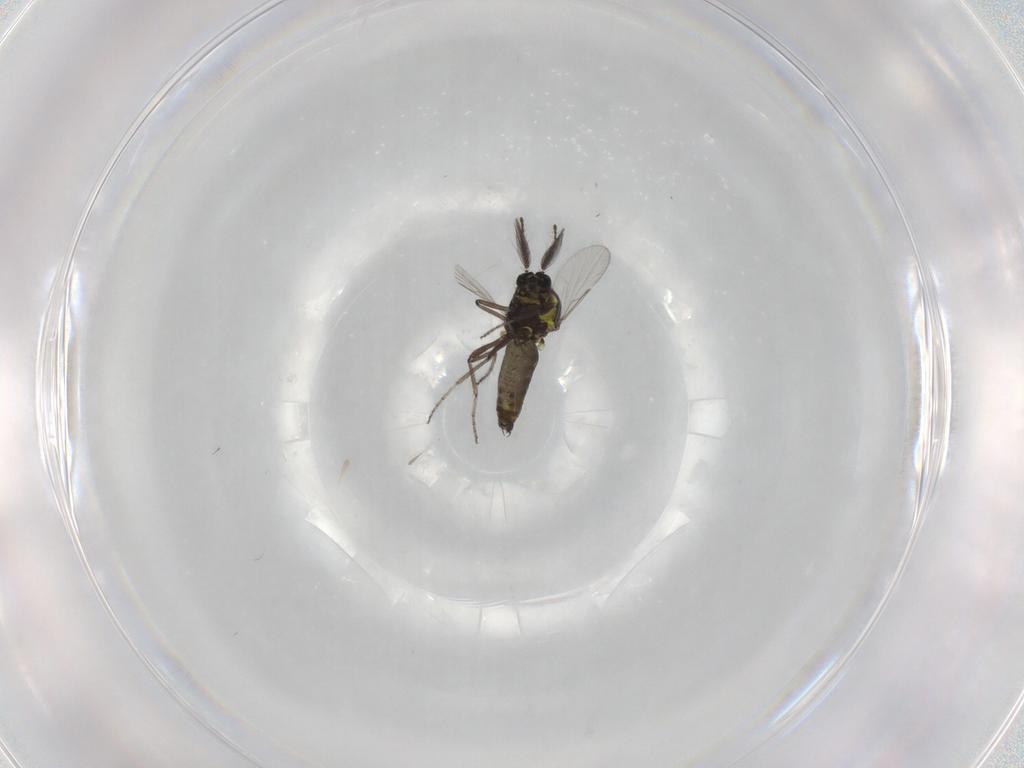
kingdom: Animalia
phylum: Arthropoda
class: Insecta
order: Diptera
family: Ceratopogonidae
